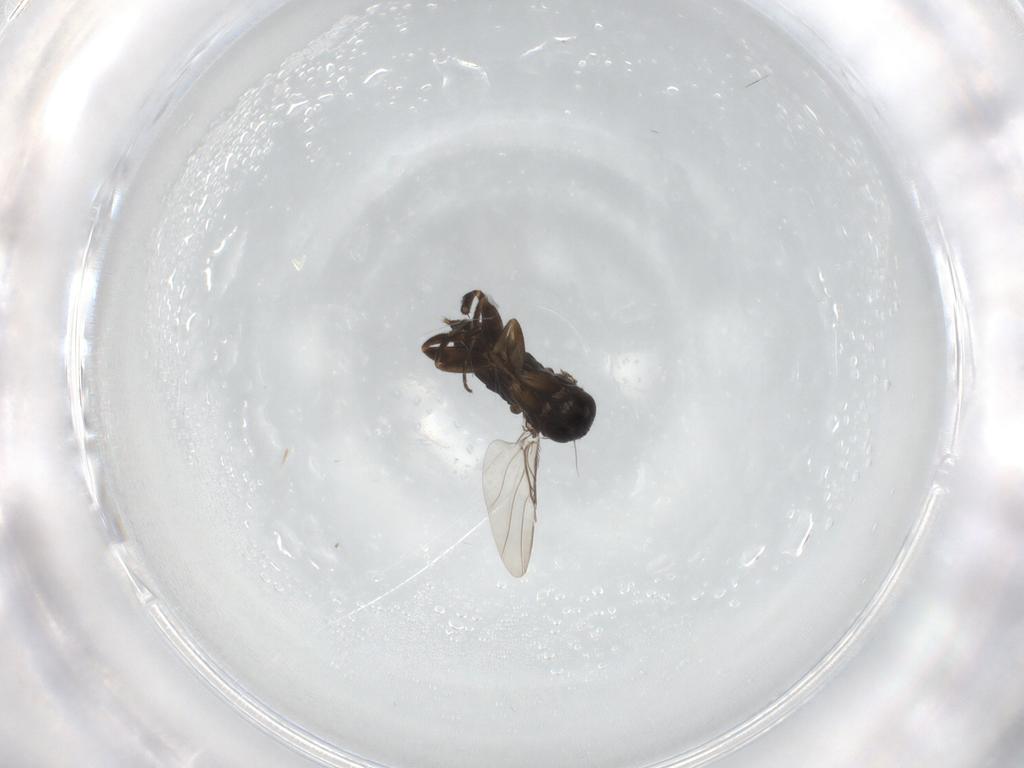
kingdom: Animalia
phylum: Arthropoda
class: Insecta
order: Diptera
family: Phoridae
